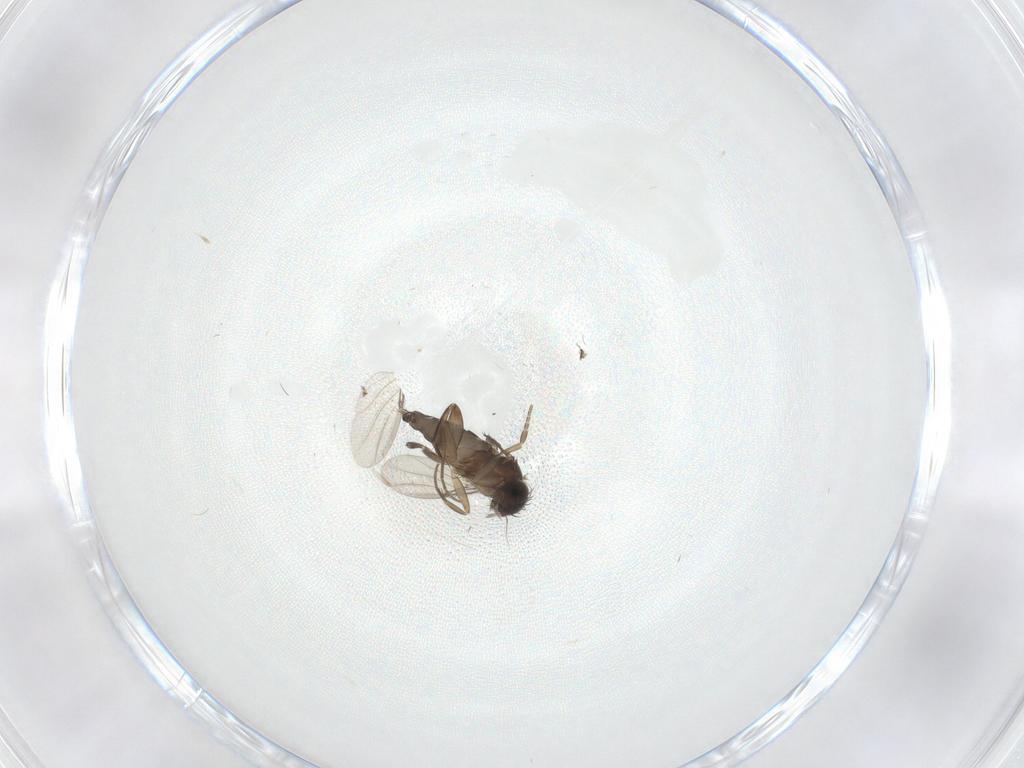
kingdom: Animalia
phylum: Arthropoda
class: Insecta
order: Diptera
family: Phoridae
